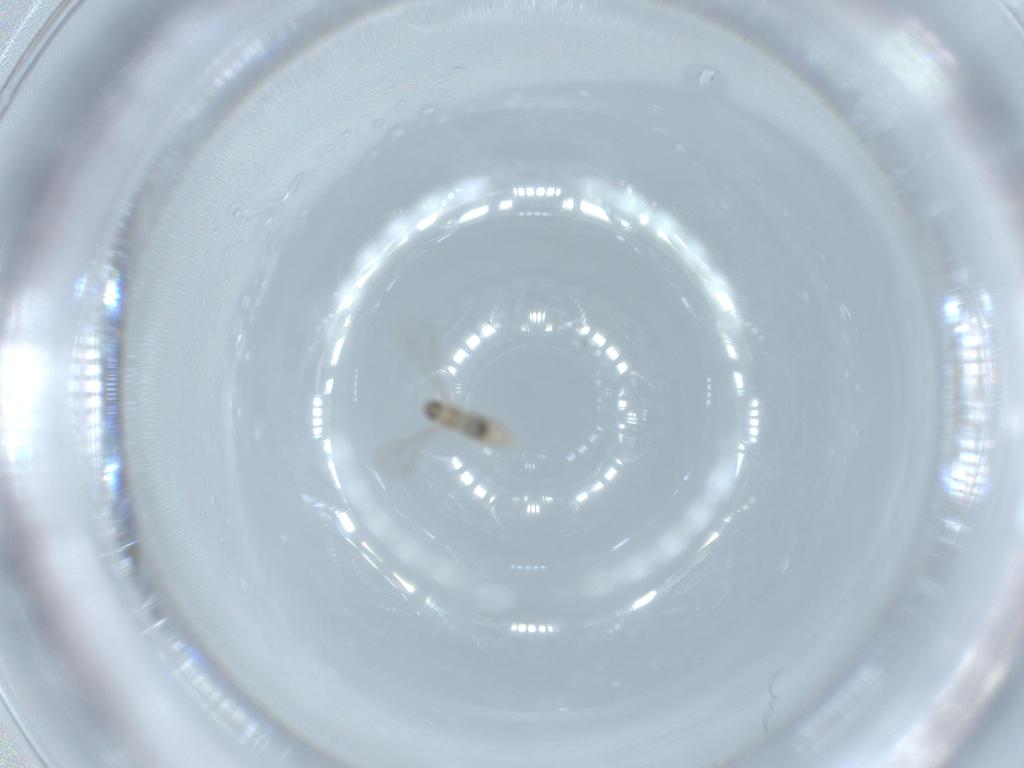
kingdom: Animalia
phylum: Arthropoda
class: Insecta
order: Diptera
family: Cecidomyiidae
